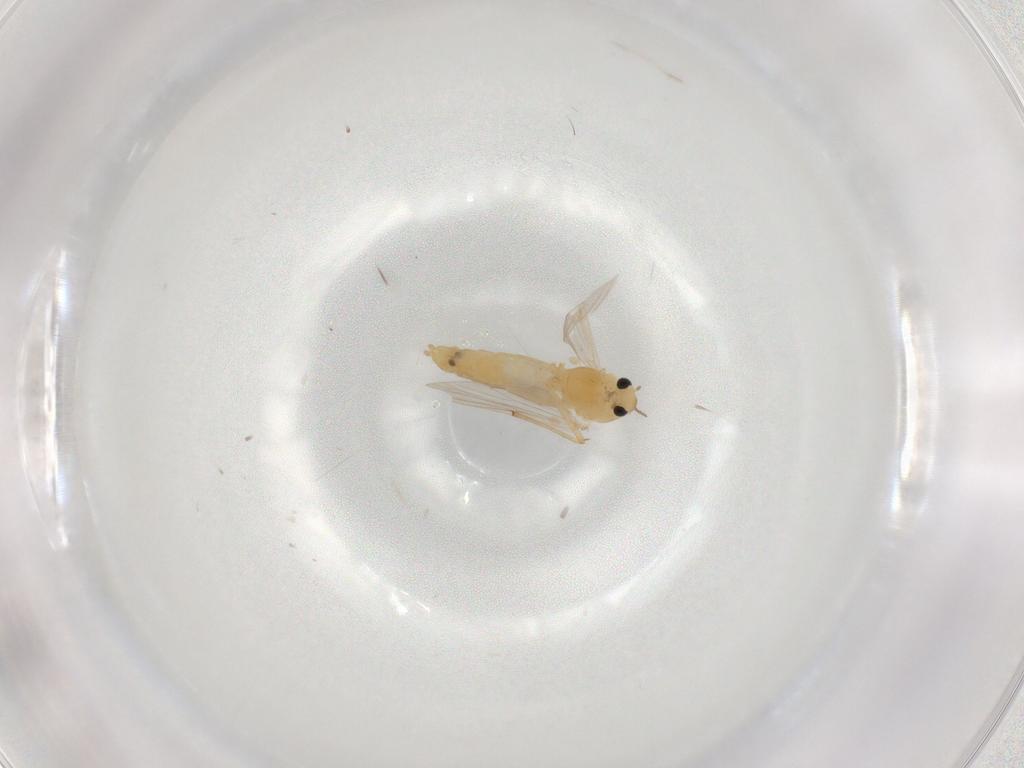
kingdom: Animalia
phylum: Arthropoda
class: Insecta
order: Diptera
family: Chironomidae
